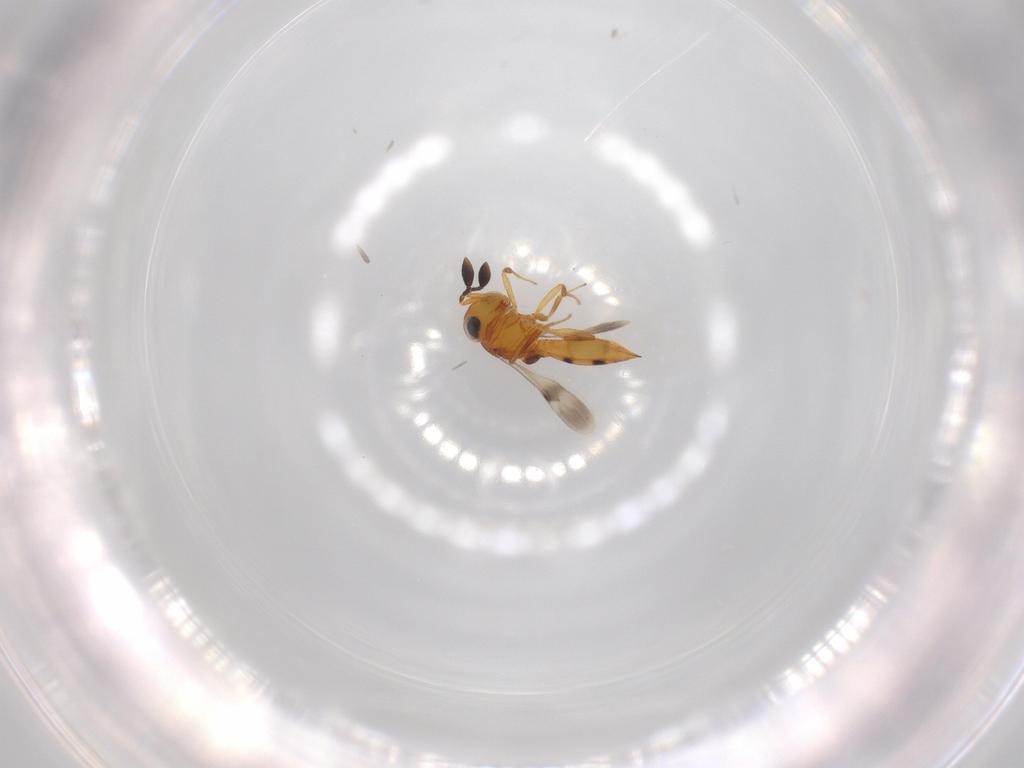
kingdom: Animalia
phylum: Arthropoda
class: Insecta
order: Hymenoptera
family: Scelionidae
